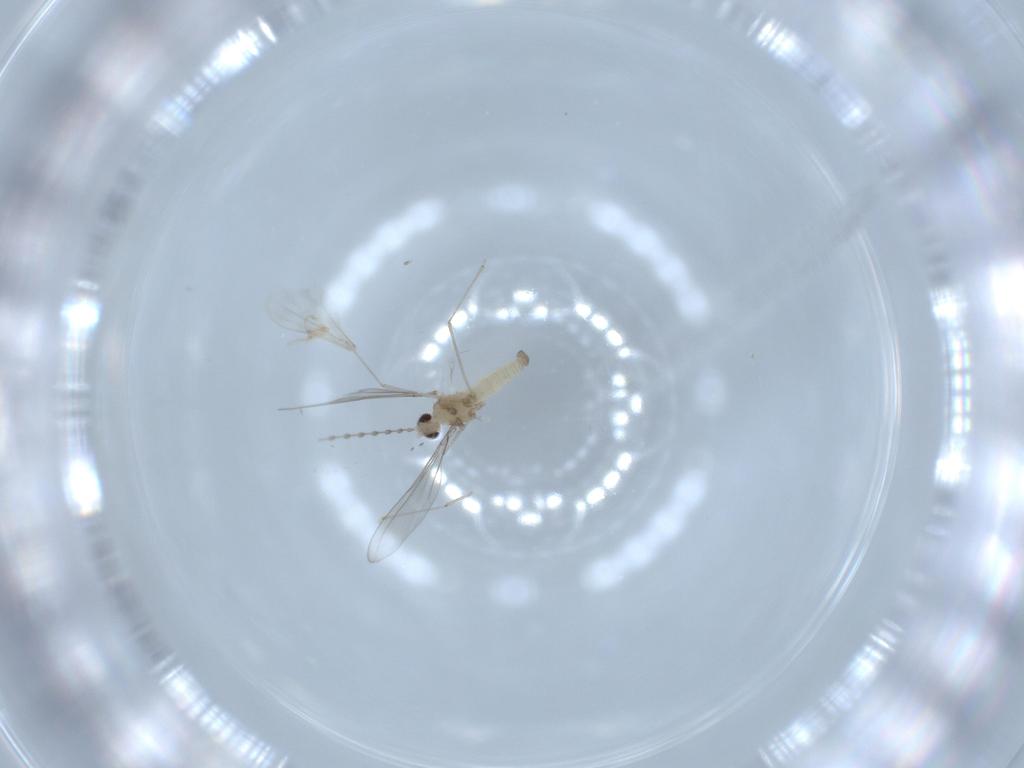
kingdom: Animalia
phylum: Arthropoda
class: Insecta
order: Diptera
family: Cecidomyiidae
